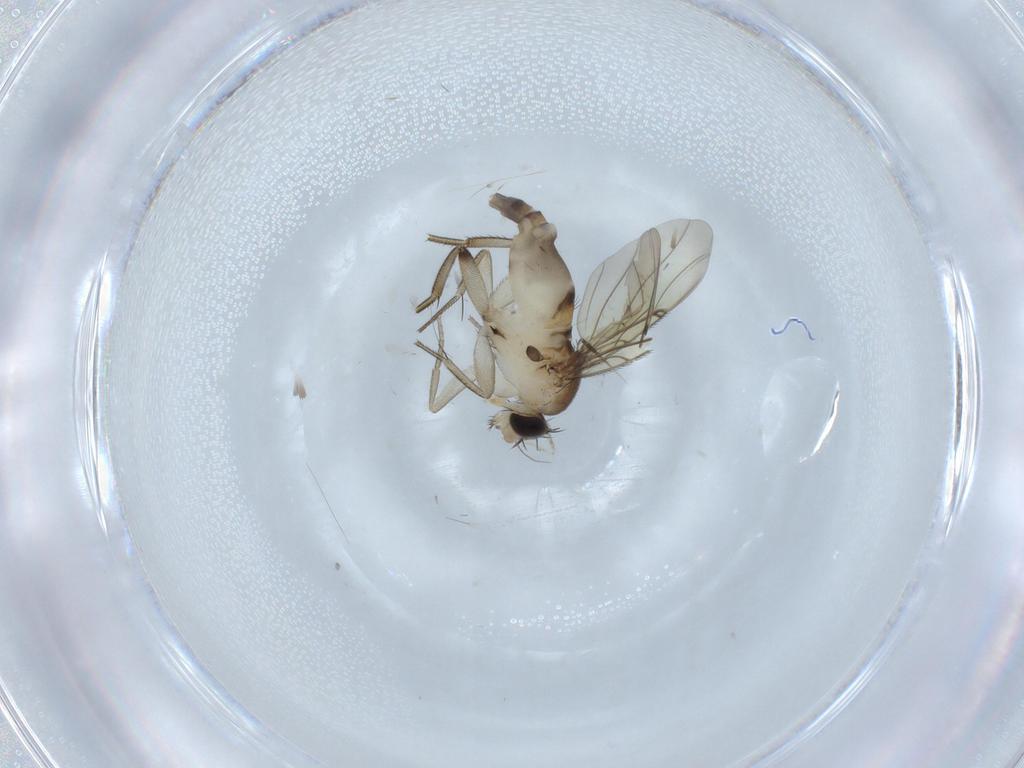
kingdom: Animalia
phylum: Arthropoda
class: Insecta
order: Diptera
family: Phoridae
